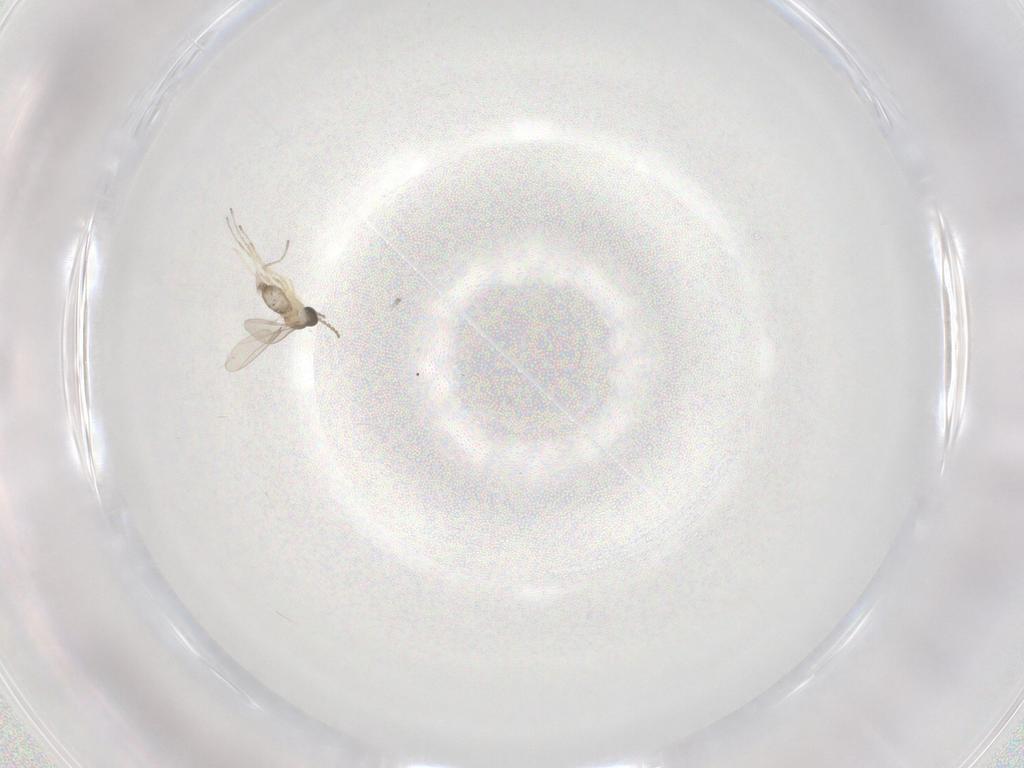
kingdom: Animalia
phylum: Arthropoda
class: Insecta
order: Diptera
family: Cecidomyiidae
